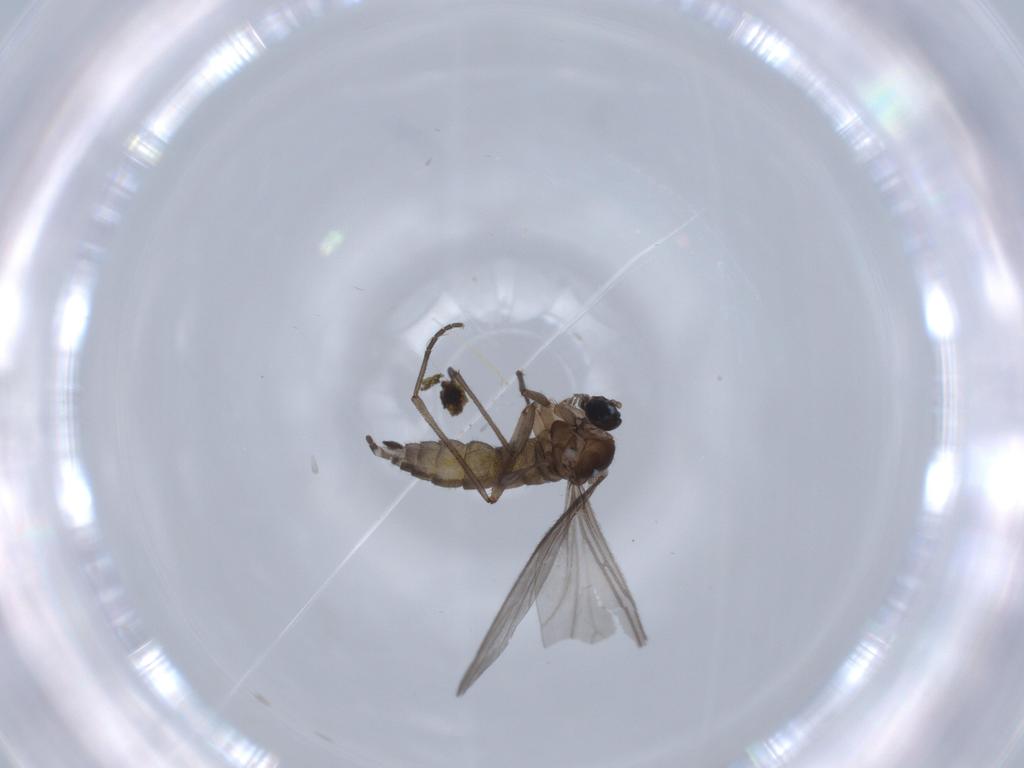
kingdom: Animalia
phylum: Arthropoda
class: Insecta
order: Diptera
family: Sciaridae
